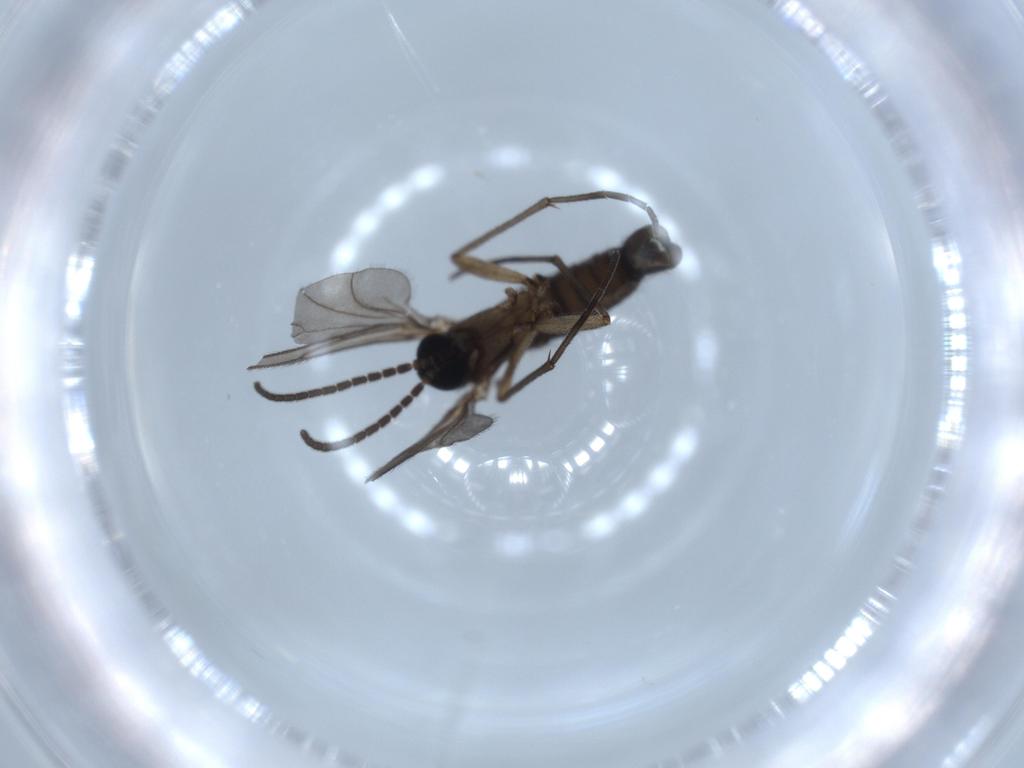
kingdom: Animalia
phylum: Arthropoda
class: Insecta
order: Diptera
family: Sciaridae
